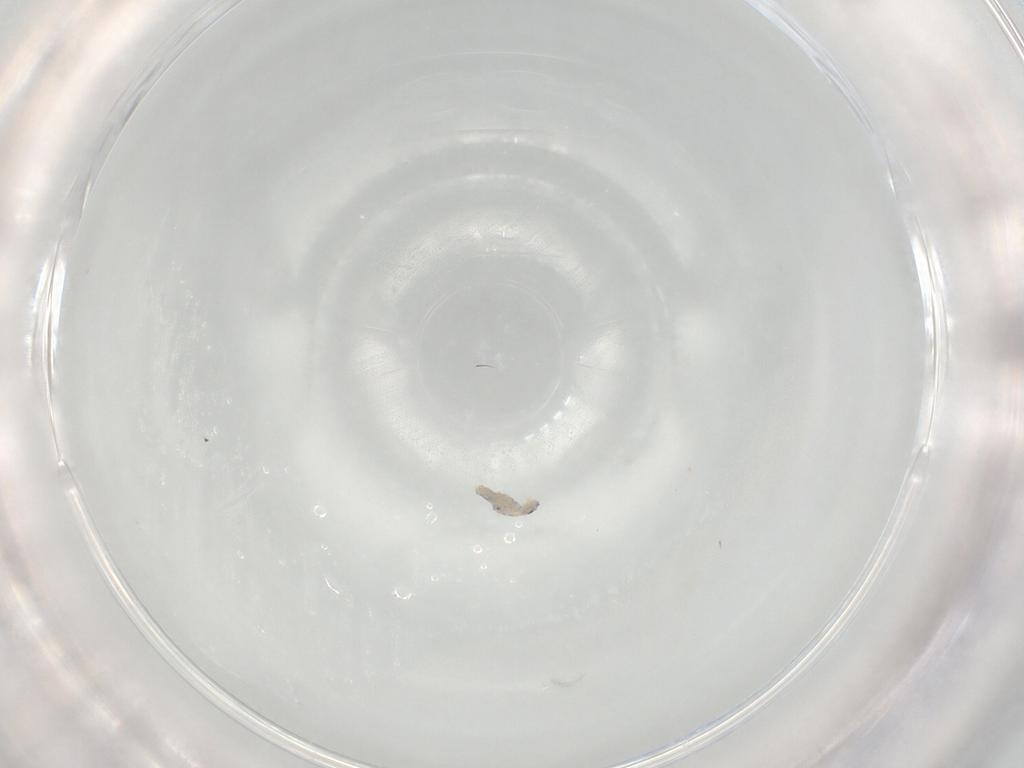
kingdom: Animalia
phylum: Arthropoda
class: Collembola
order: Entomobryomorpha
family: Entomobryidae
